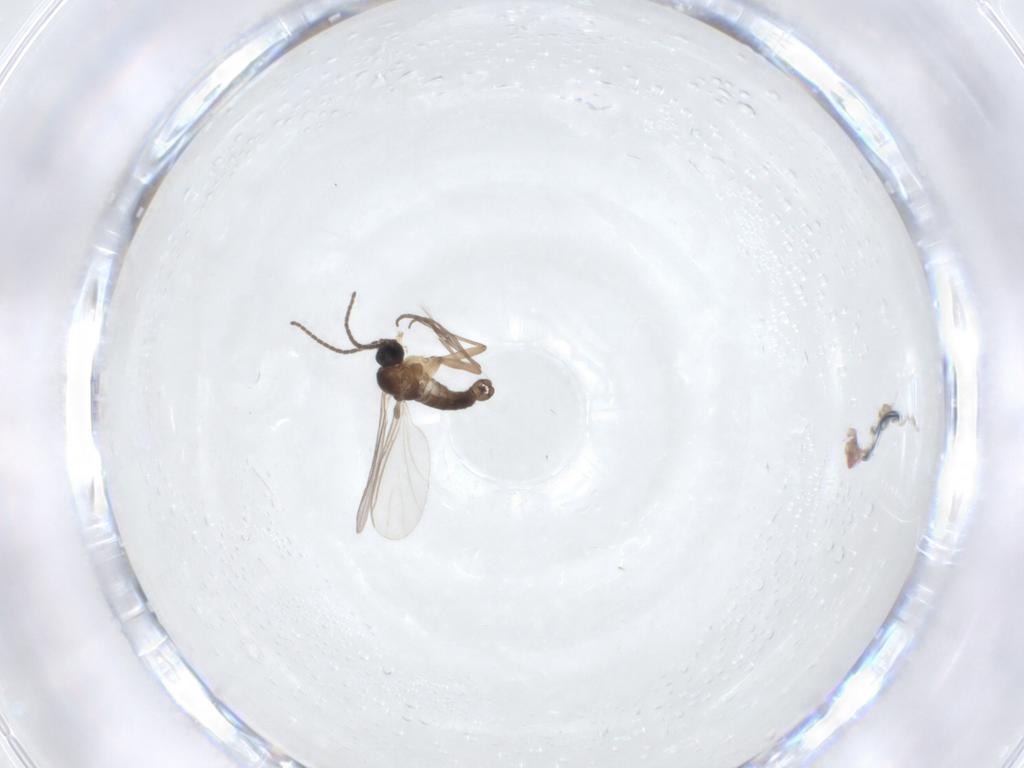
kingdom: Animalia
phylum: Arthropoda
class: Insecta
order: Diptera
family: Sciaridae
